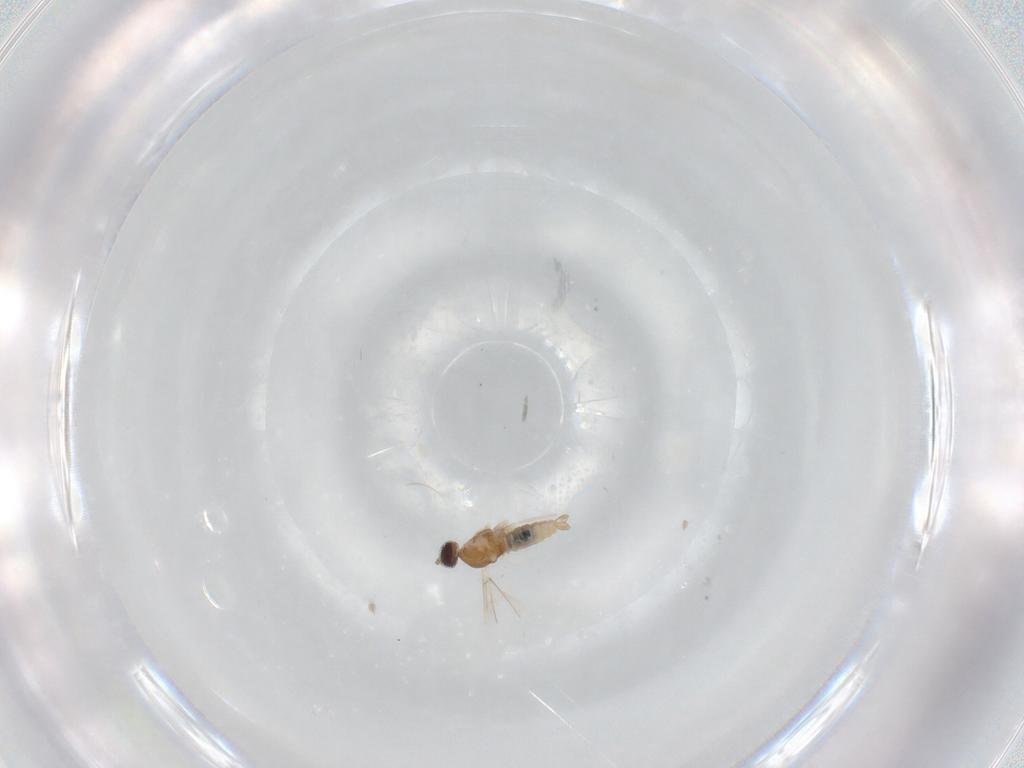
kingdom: Animalia
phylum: Arthropoda
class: Insecta
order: Diptera
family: Cecidomyiidae
